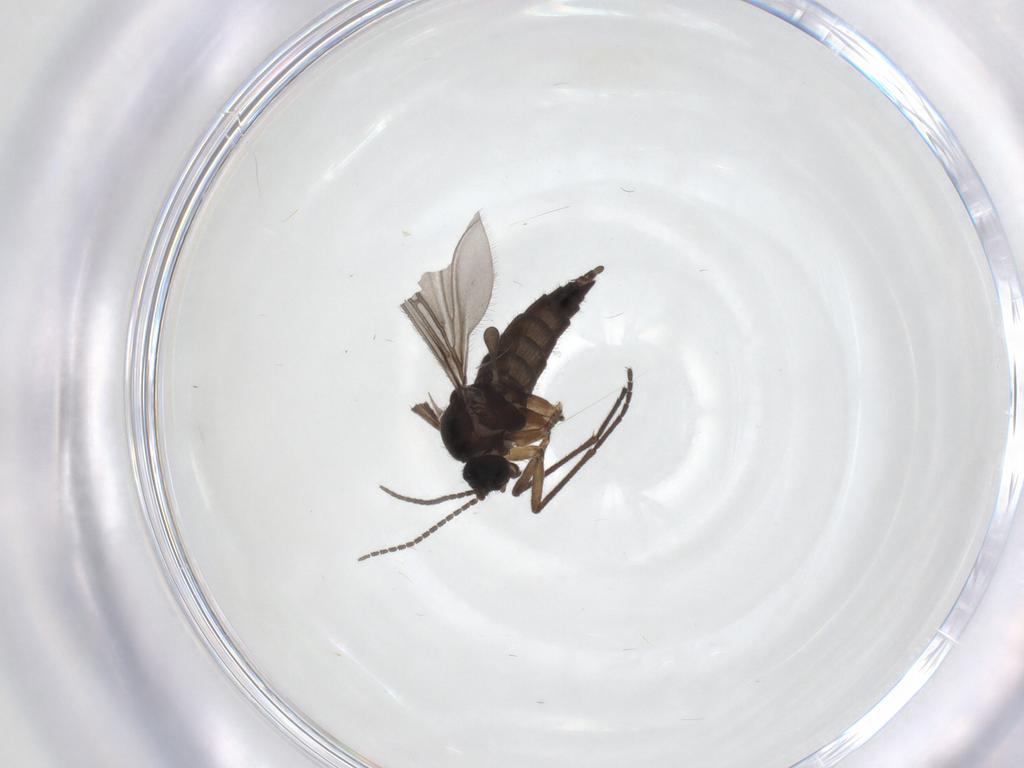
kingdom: Animalia
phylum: Arthropoda
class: Insecta
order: Diptera
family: Sciaridae
